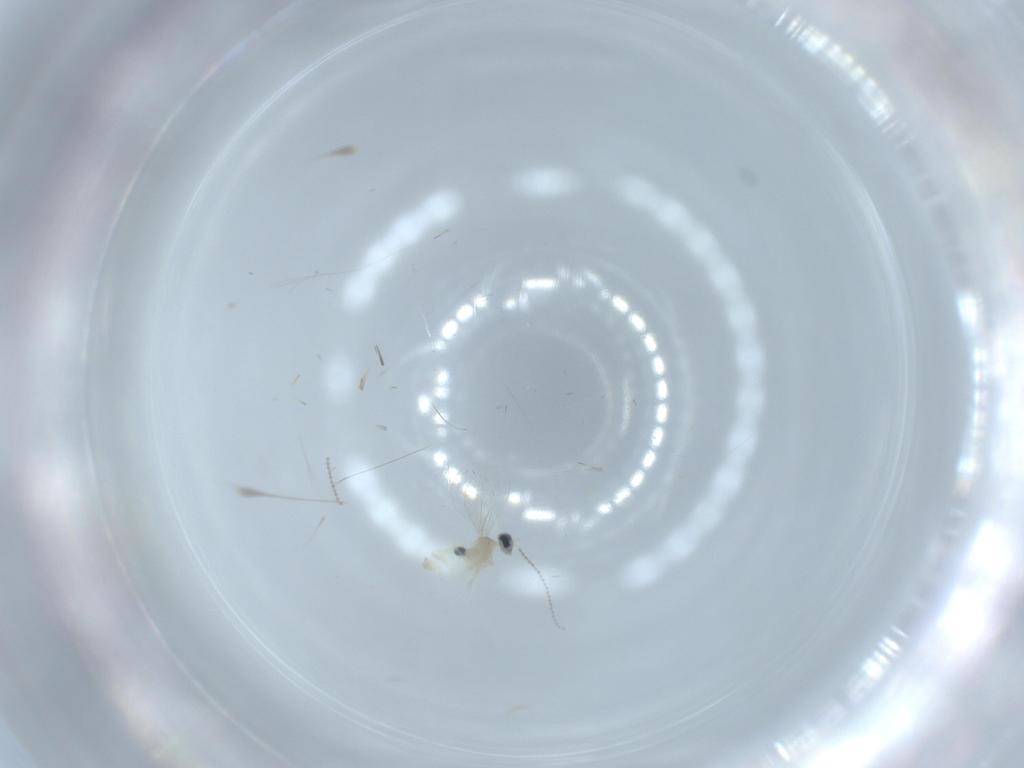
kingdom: Animalia
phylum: Arthropoda
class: Insecta
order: Diptera
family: Cecidomyiidae
